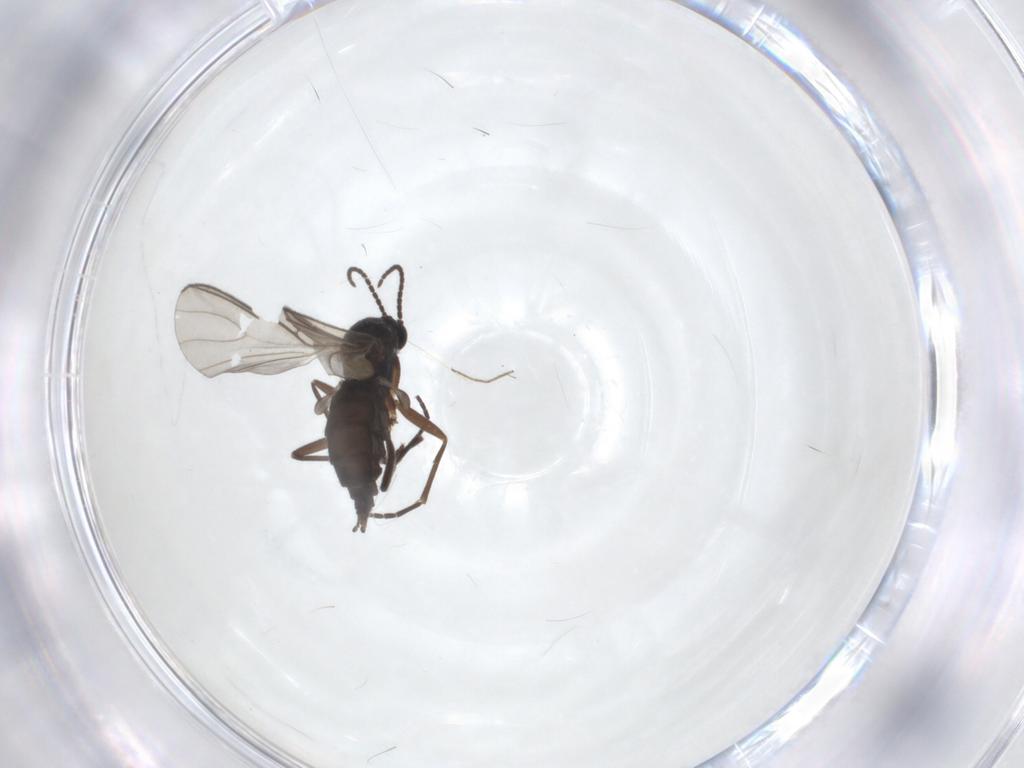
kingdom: Animalia
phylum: Arthropoda
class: Insecta
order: Diptera
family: Sciaridae
